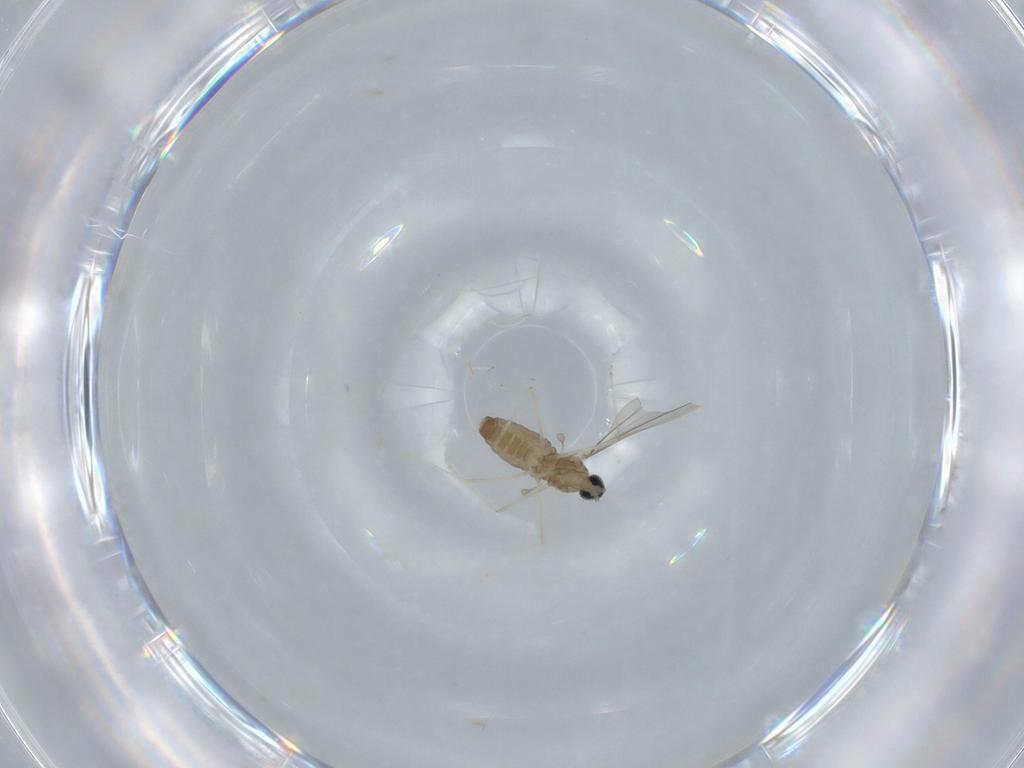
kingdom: Animalia
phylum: Arthropoda
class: Insecta
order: Diptera
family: Cecidomyiidae
